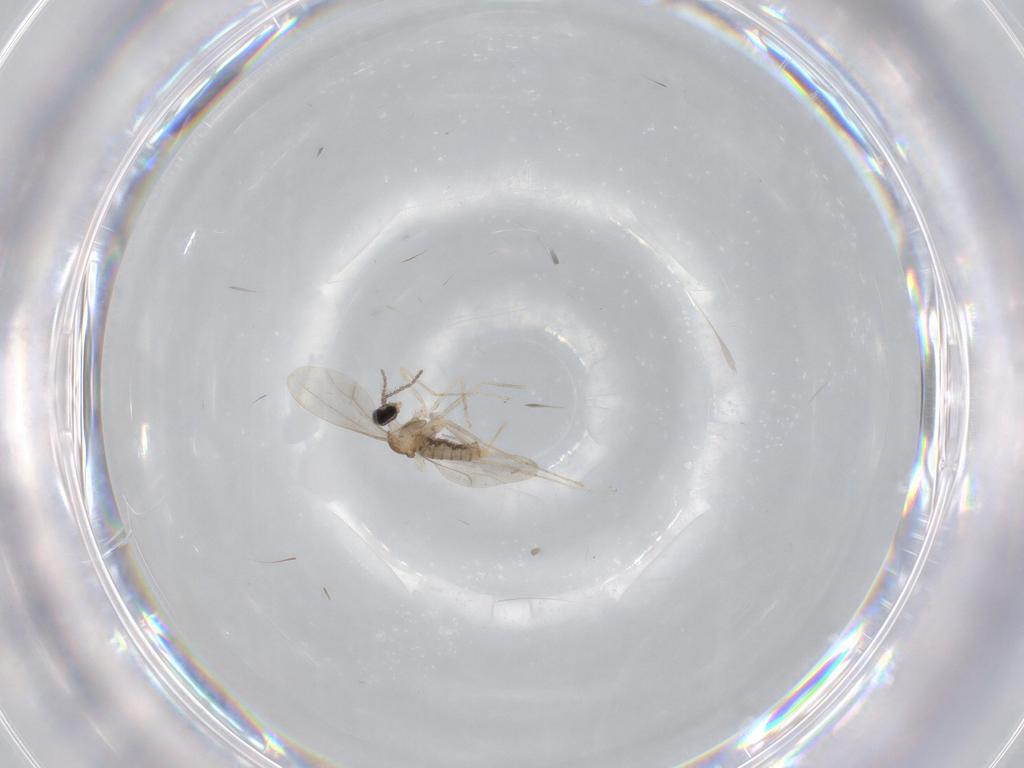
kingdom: Animalia
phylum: Arthropoda
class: Insecta
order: Diptera
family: Cecidomyiidae
